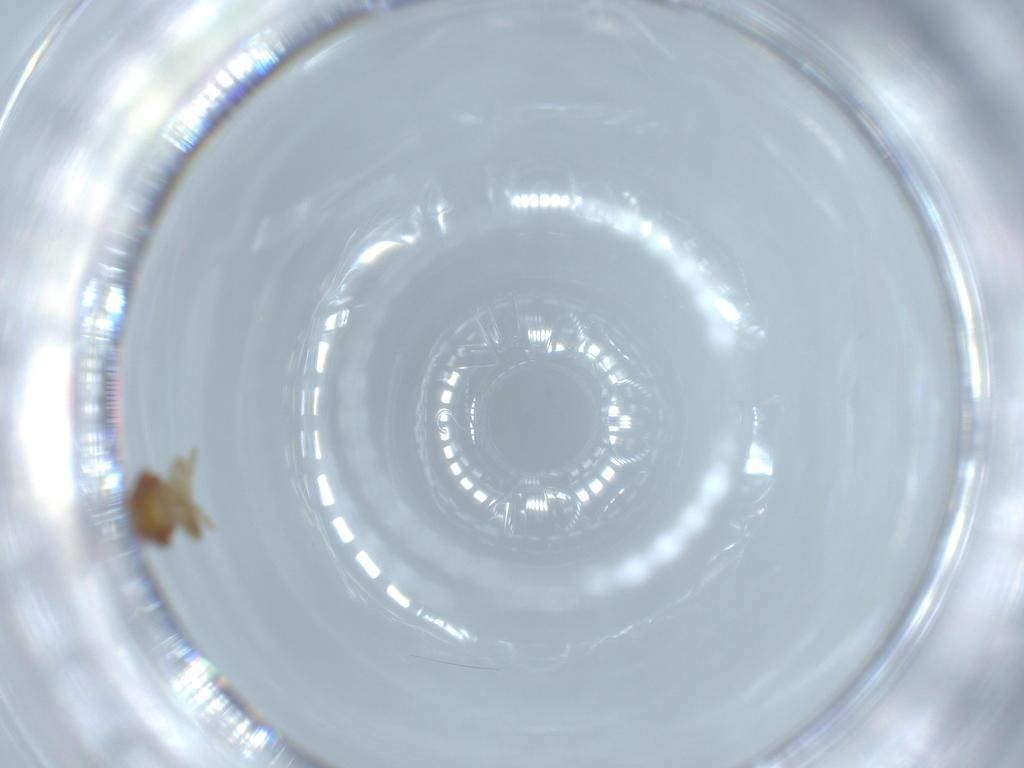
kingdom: Animalia
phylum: Arthropoda
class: Insecta
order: Hemiptera
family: Issidae
